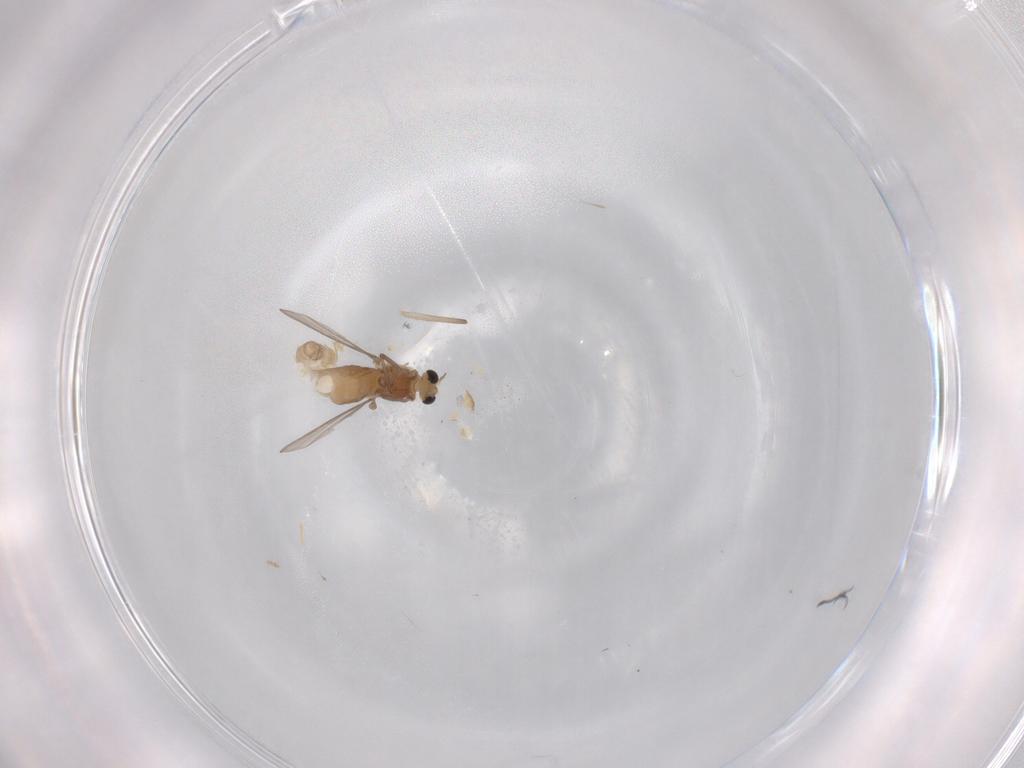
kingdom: Animalia
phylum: Arthropoda
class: Insecta
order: Diptera
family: Chironomidae
